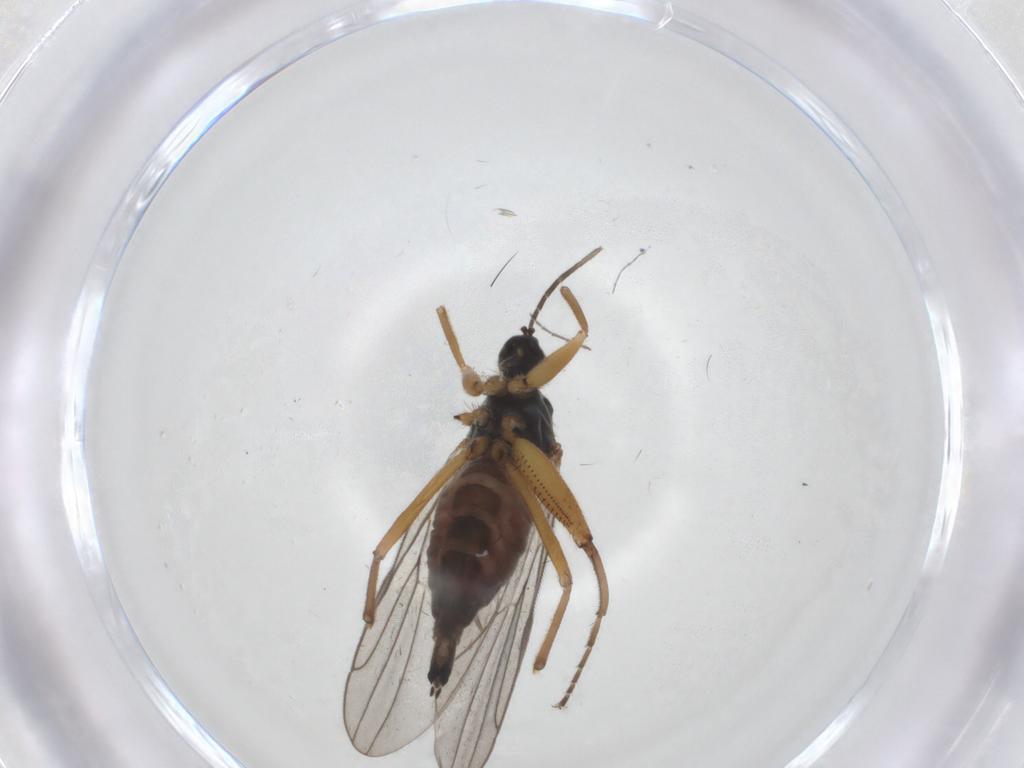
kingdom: Animalia
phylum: Arthropoda
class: Insecta
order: Diptera
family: Hybotidae
